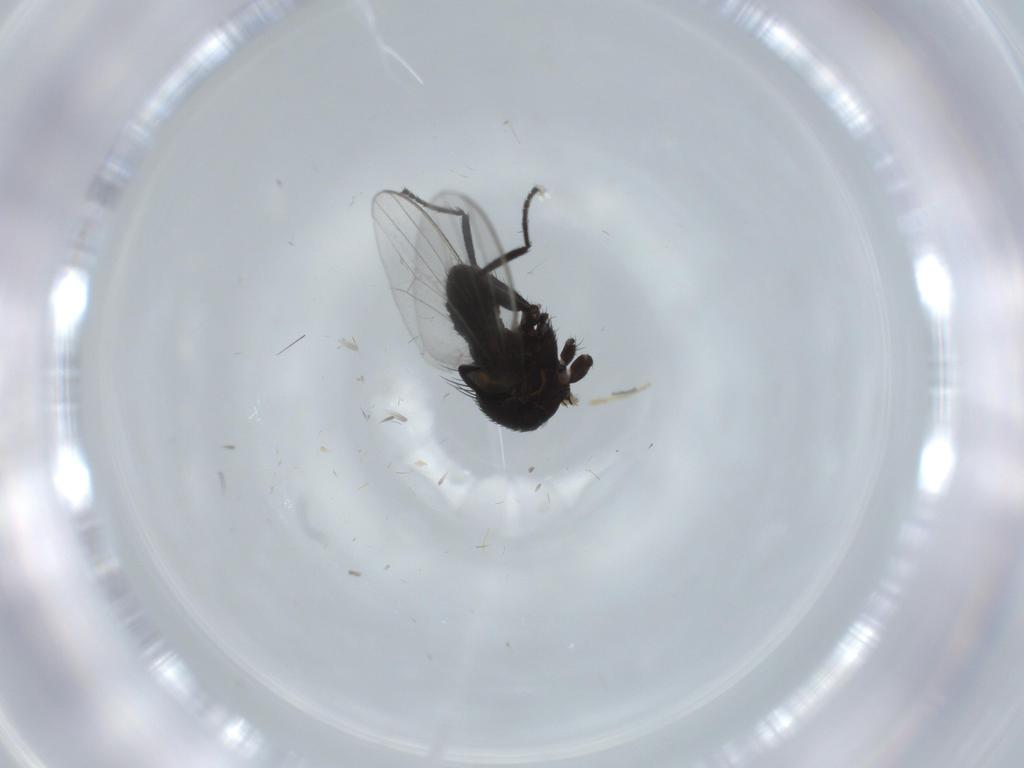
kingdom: Animalia
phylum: Arthropoda
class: Insecta
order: Diptera
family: Milichiidae
